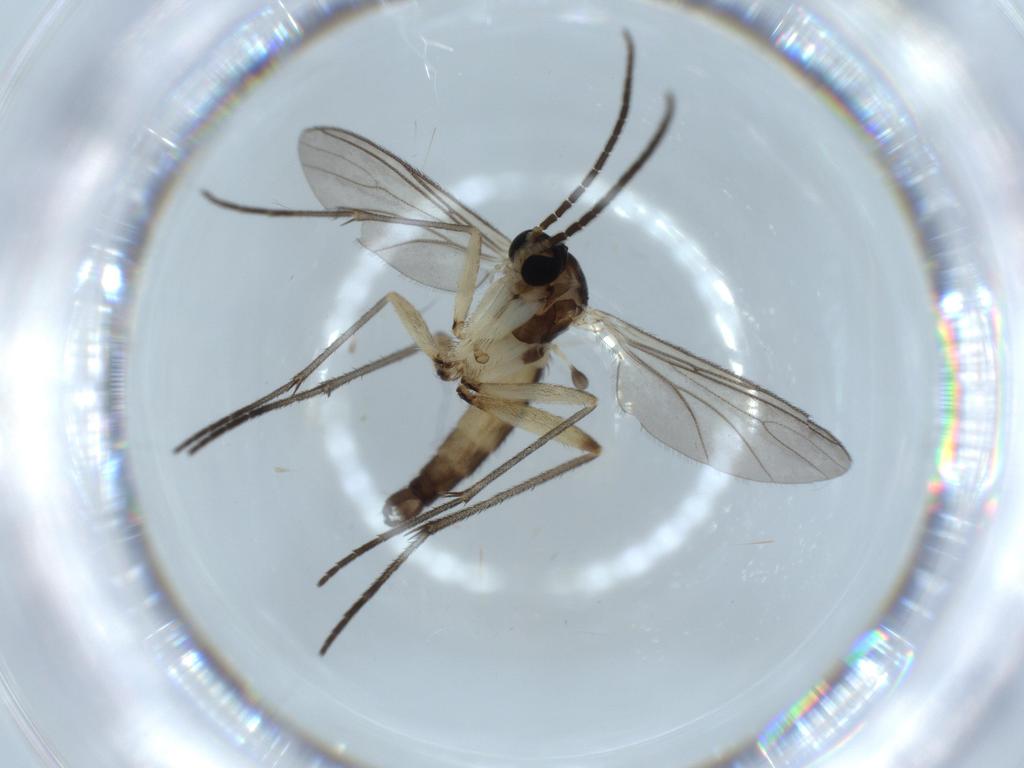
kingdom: Animalia
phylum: Arthropoda
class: Insecta
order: Diptera
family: Sciaridae
